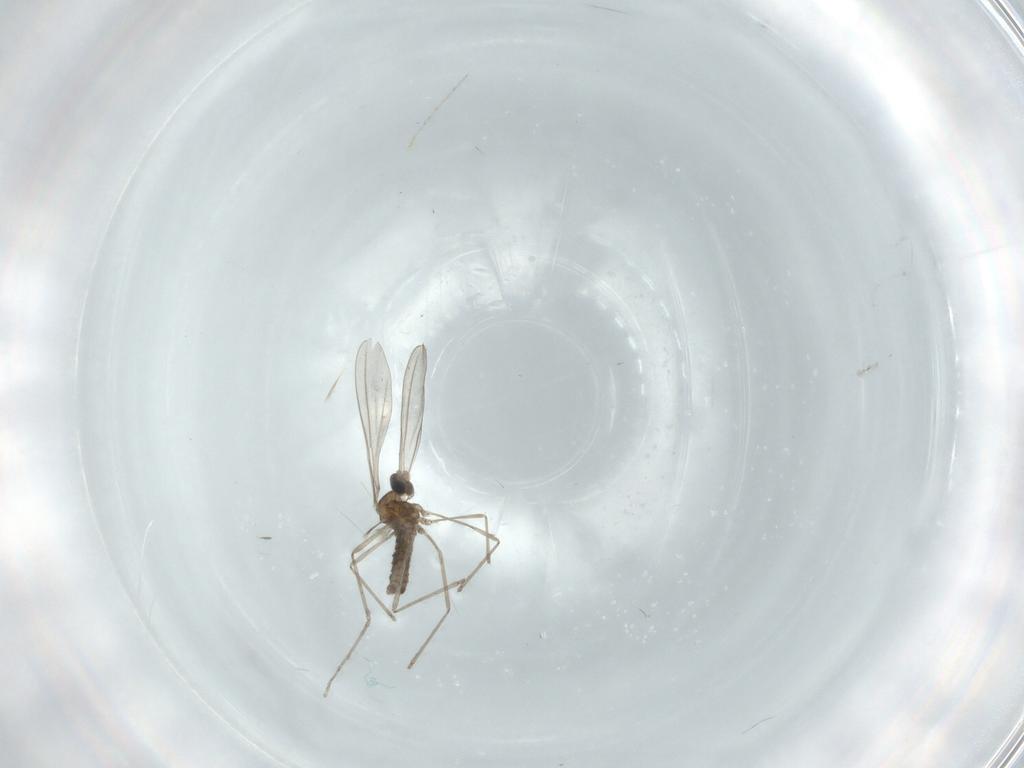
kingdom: Animalia
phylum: Arthropoda
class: Insecta
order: Diptera
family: Cecidomyiidae
